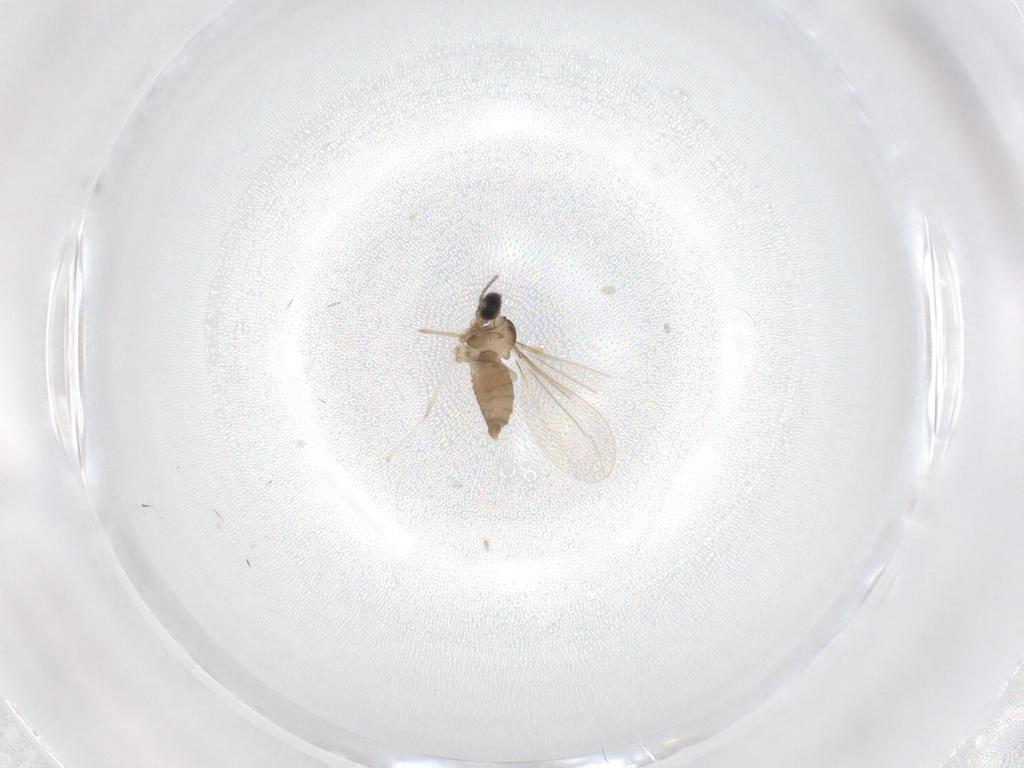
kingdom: Animalia
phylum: Arthropoda
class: Insecta
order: Diptera
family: Cecidomyiidae
